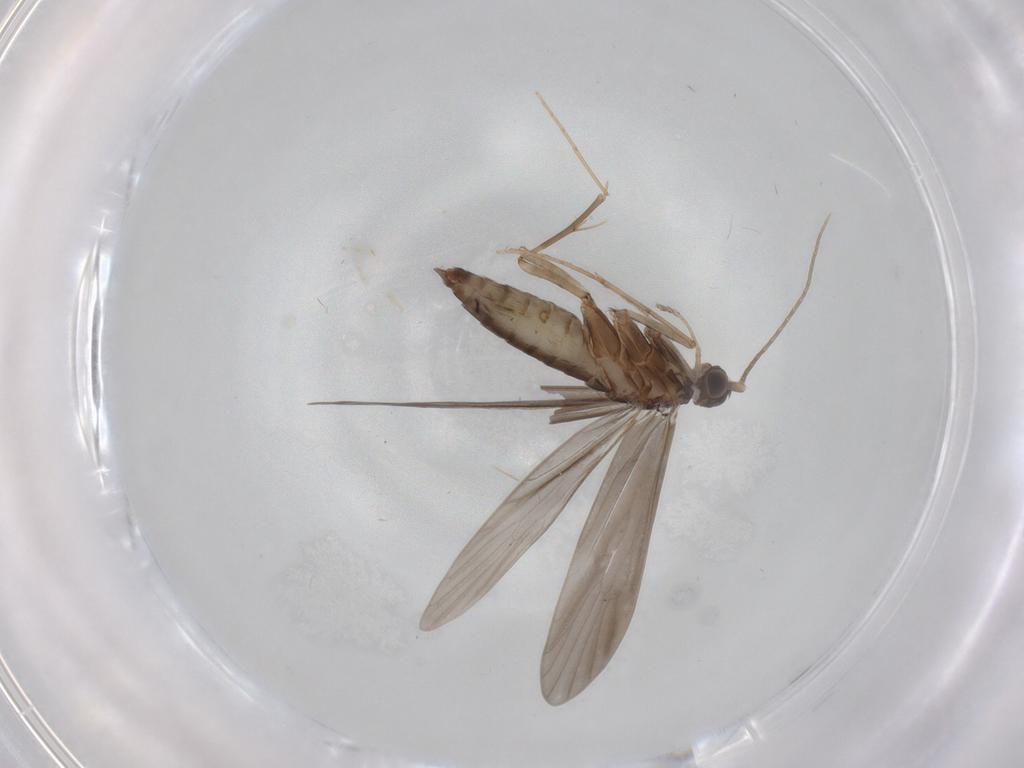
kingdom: Animalia
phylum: Arthropoda
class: Insecta
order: Trichoptera
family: Xiphocentronidae
